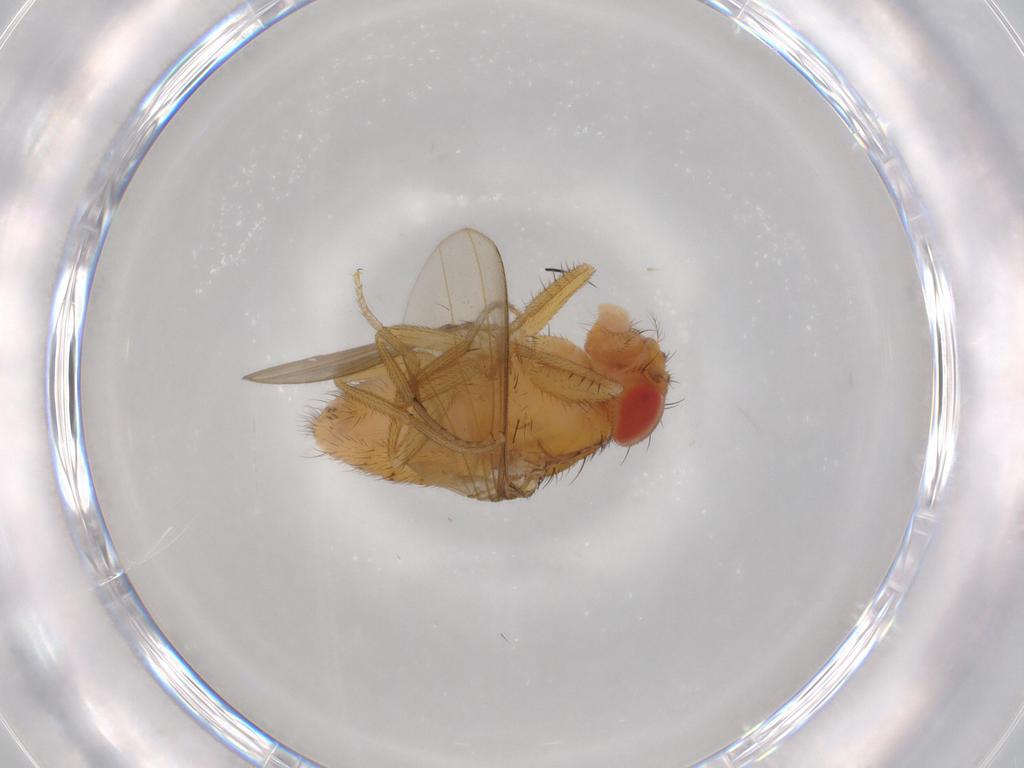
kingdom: Animalia
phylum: Arthropoda
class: Insecta
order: Diptera
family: Drosophilidae
